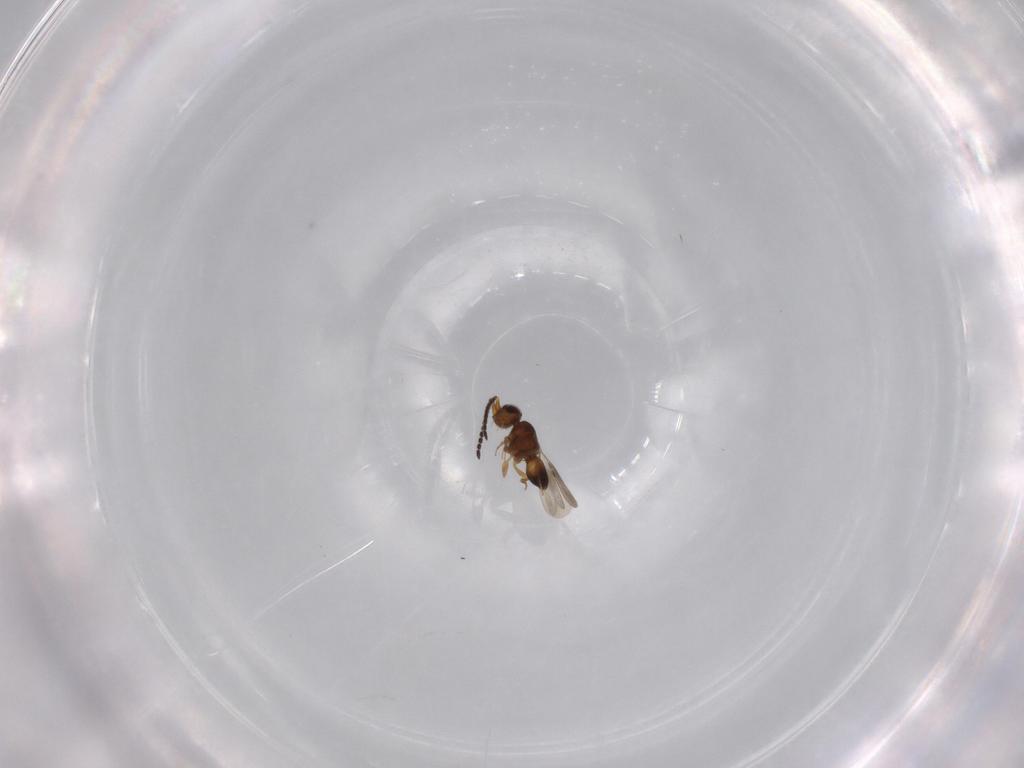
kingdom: Animalia
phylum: Arthropoda
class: Insecta
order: Hymenoptera
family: Ceraphronidae
